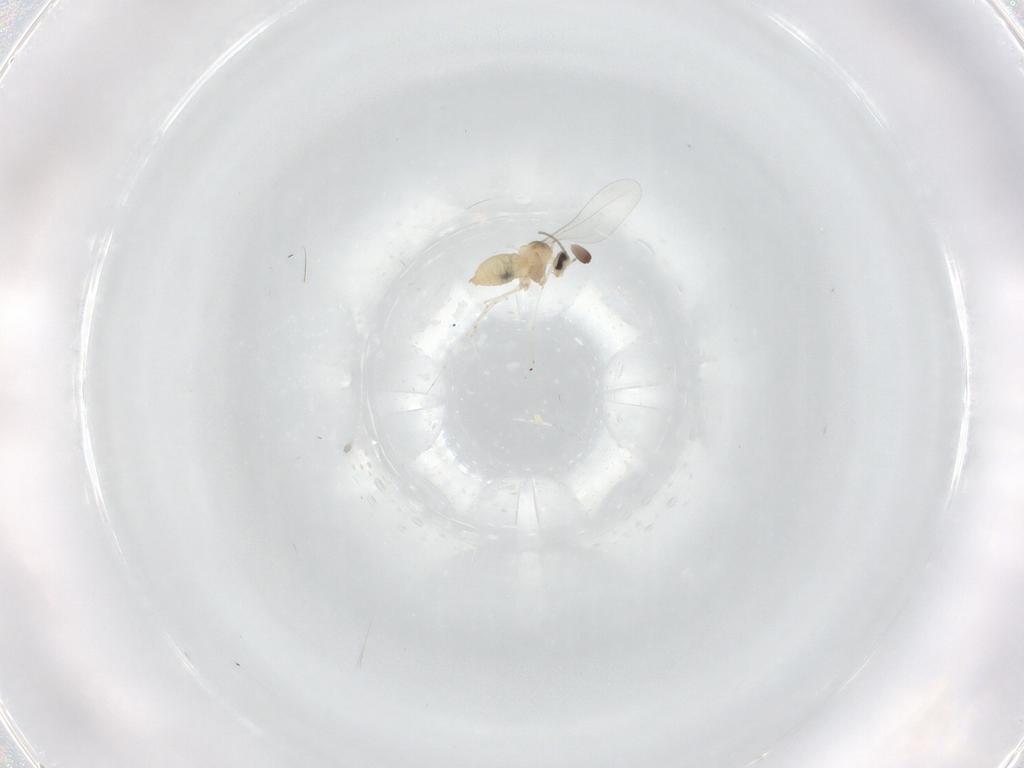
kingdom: Animalia
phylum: Arthropoda
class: Insecta
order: Diptera
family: Cecidomyiidae
